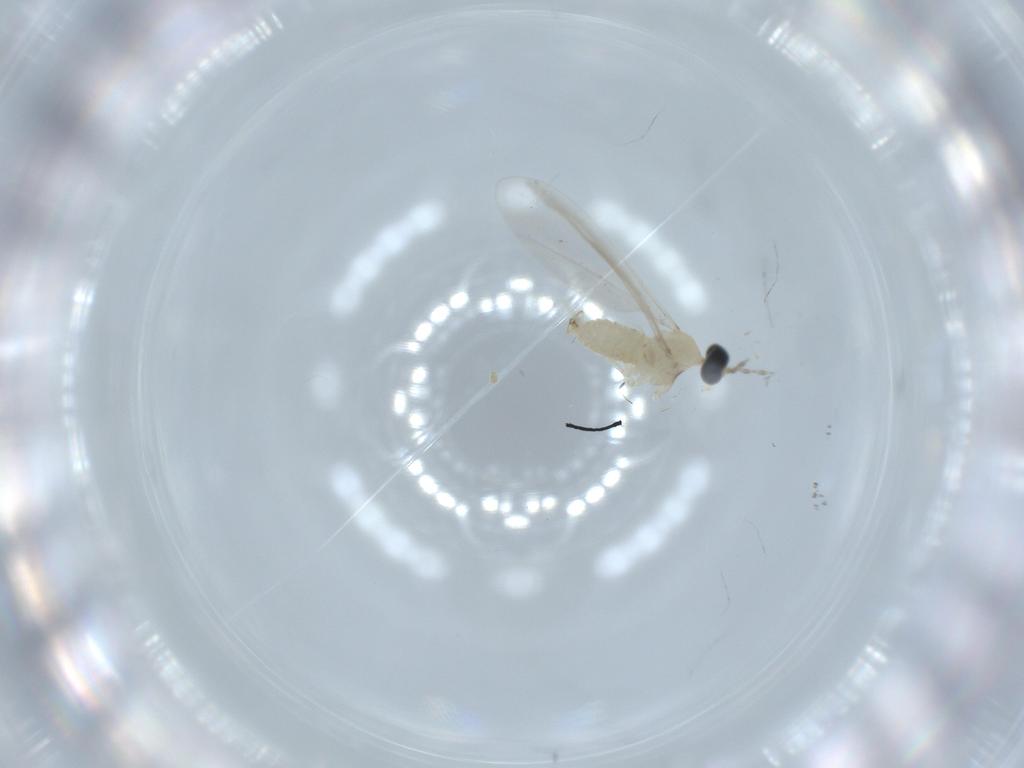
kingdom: Animalia
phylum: Arthropoda
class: Insecta
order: Diptera
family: Cecidomyiidae
